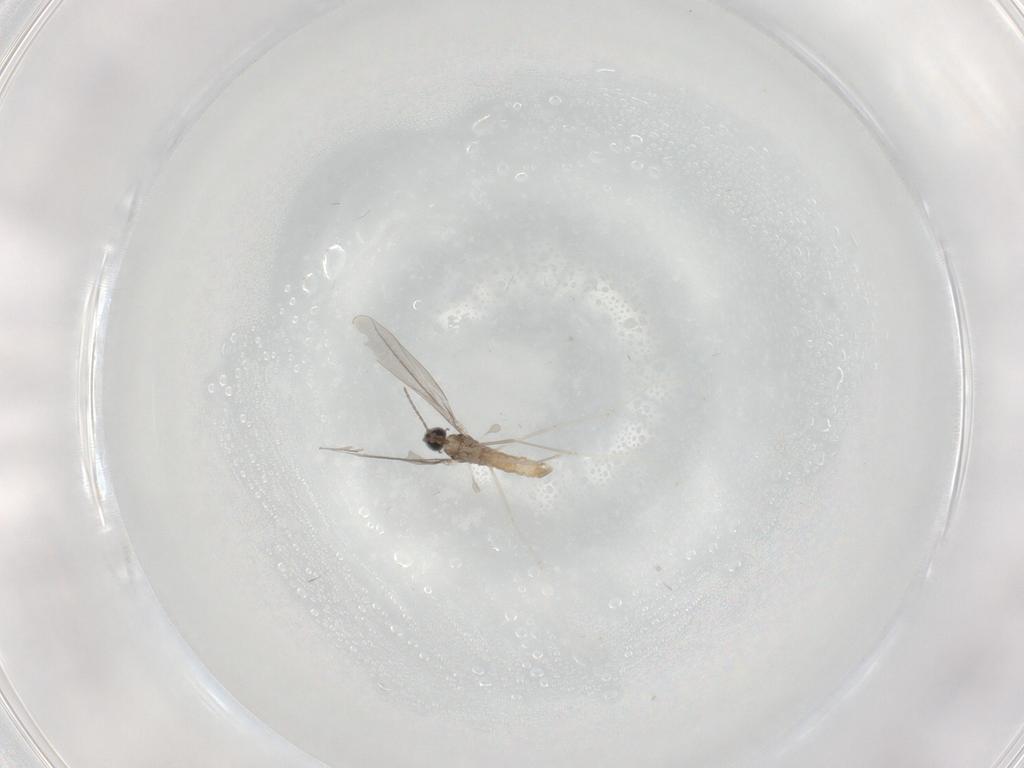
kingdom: Animalia
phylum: Arthropoda
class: Insecta
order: Diptera
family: Phoridae
